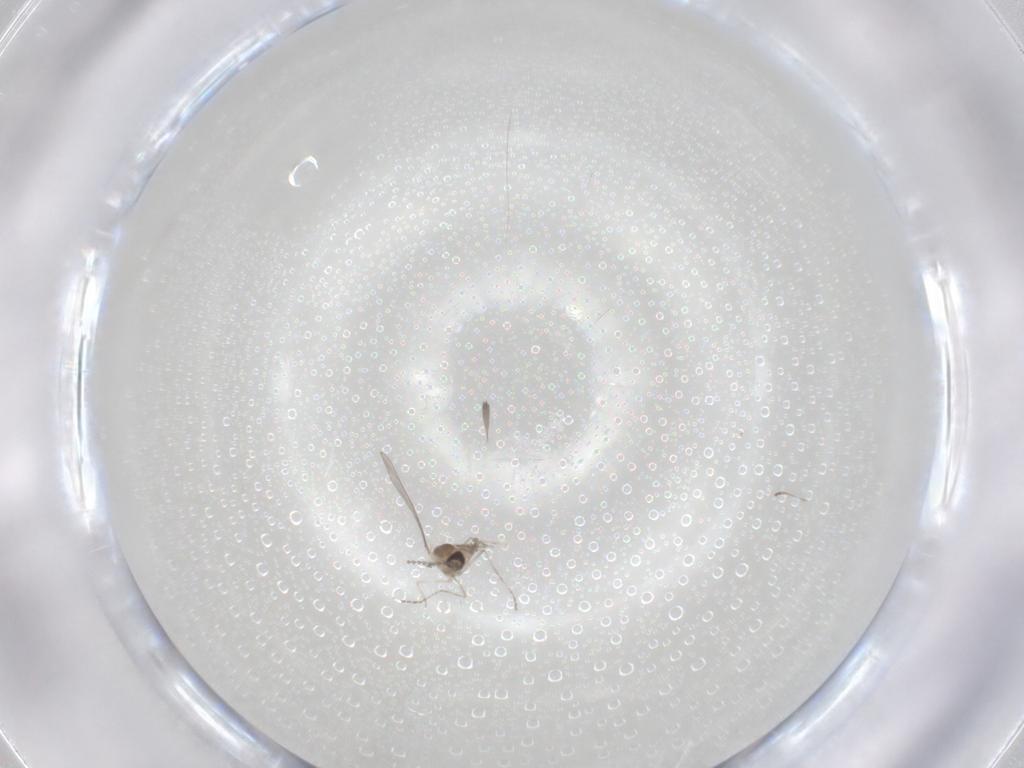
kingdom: Animalia
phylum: Arthropoda
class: Insecta
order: Diptera
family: Cecidomyiidae
